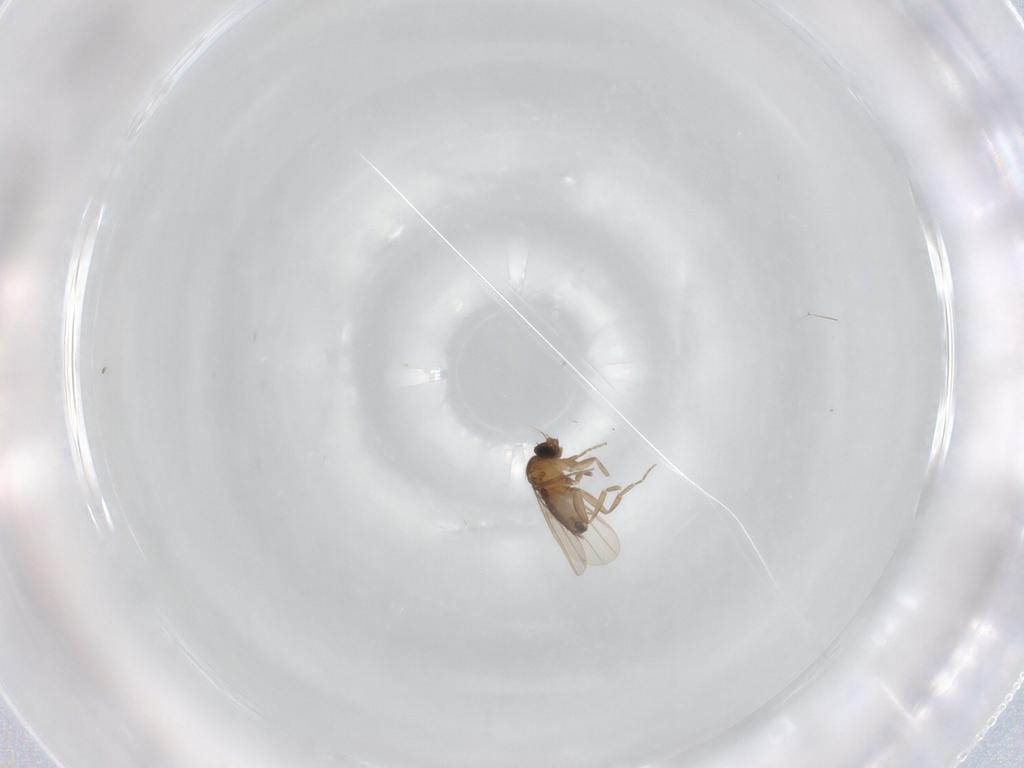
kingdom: Animalia
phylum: Arthropoda
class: Insecta
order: Diptera
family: Phoridae
